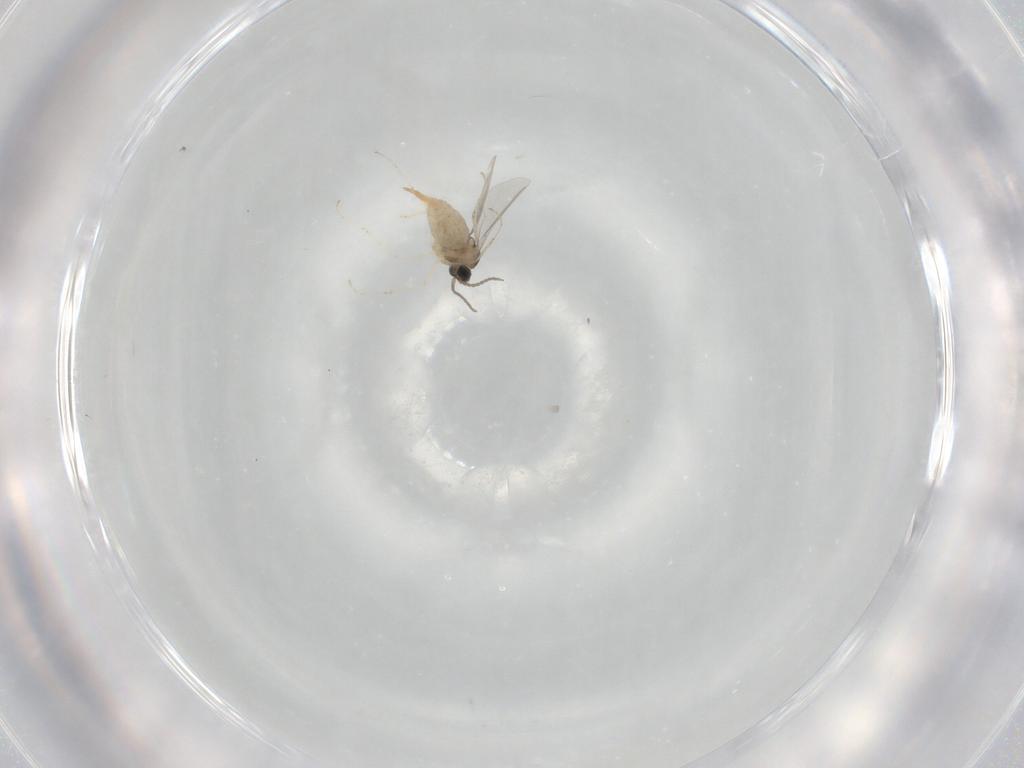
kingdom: Animalia
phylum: Arthropoda
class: Insecta
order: Diptera
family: Cecidomyiidae
